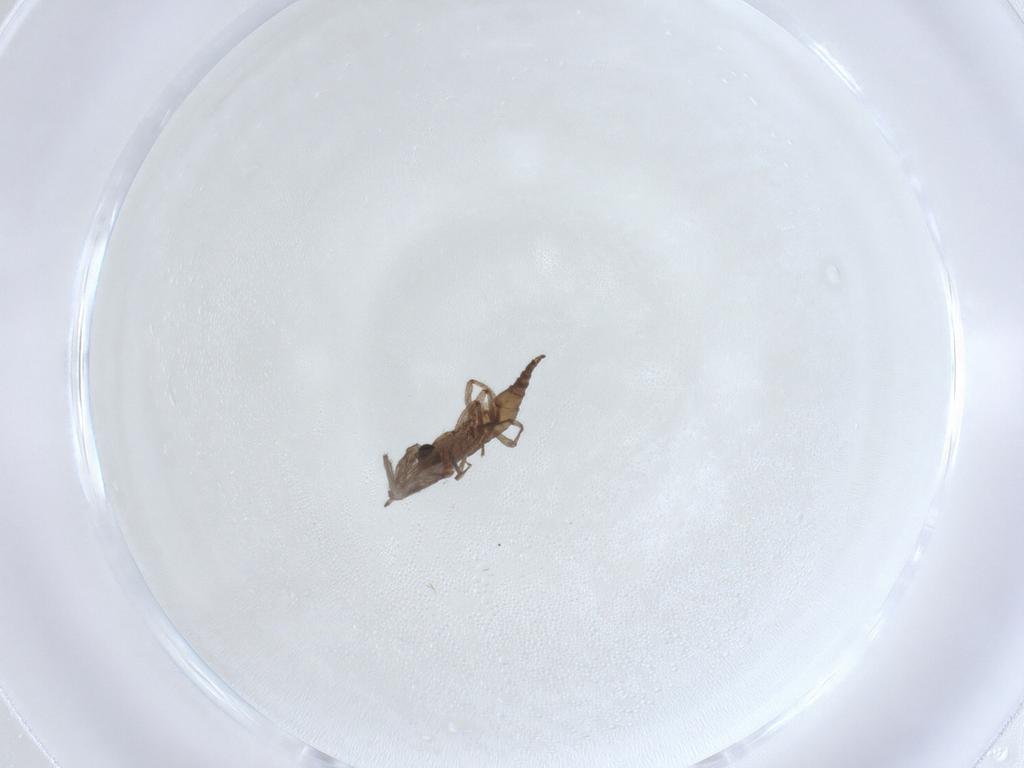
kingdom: Animalia
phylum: Arthropoda
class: Insecta
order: Diptera
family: Sciaridae
